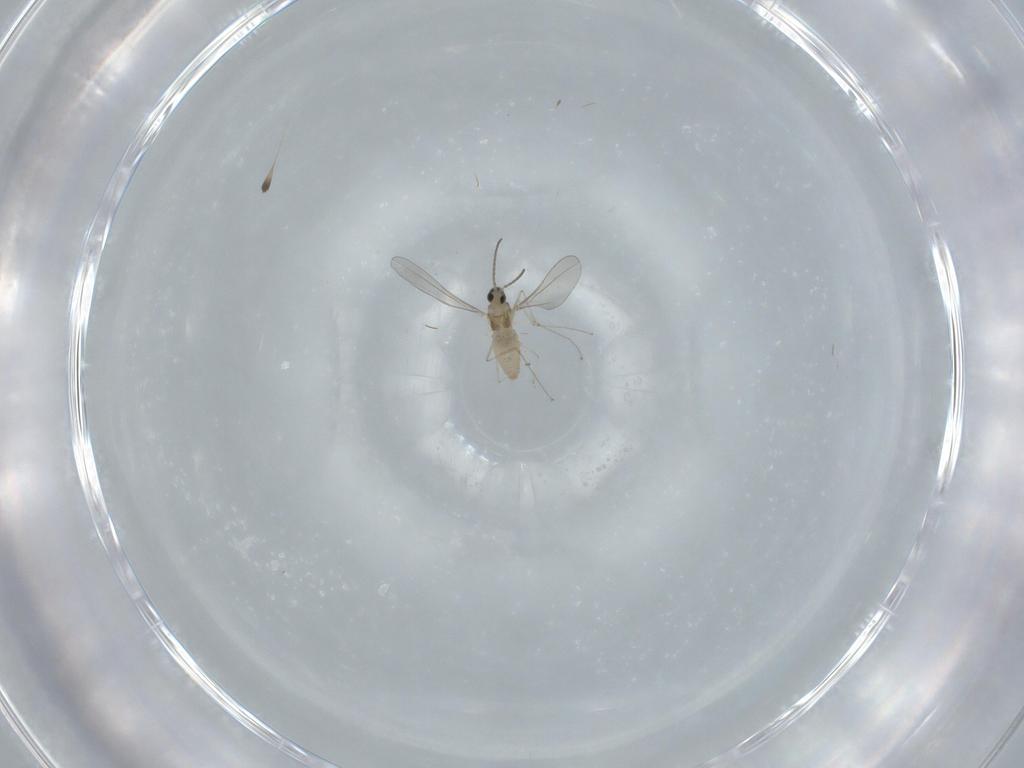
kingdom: Animalia
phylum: Arthropoda
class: Insecta
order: Diptera
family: Cecidomyiidae
